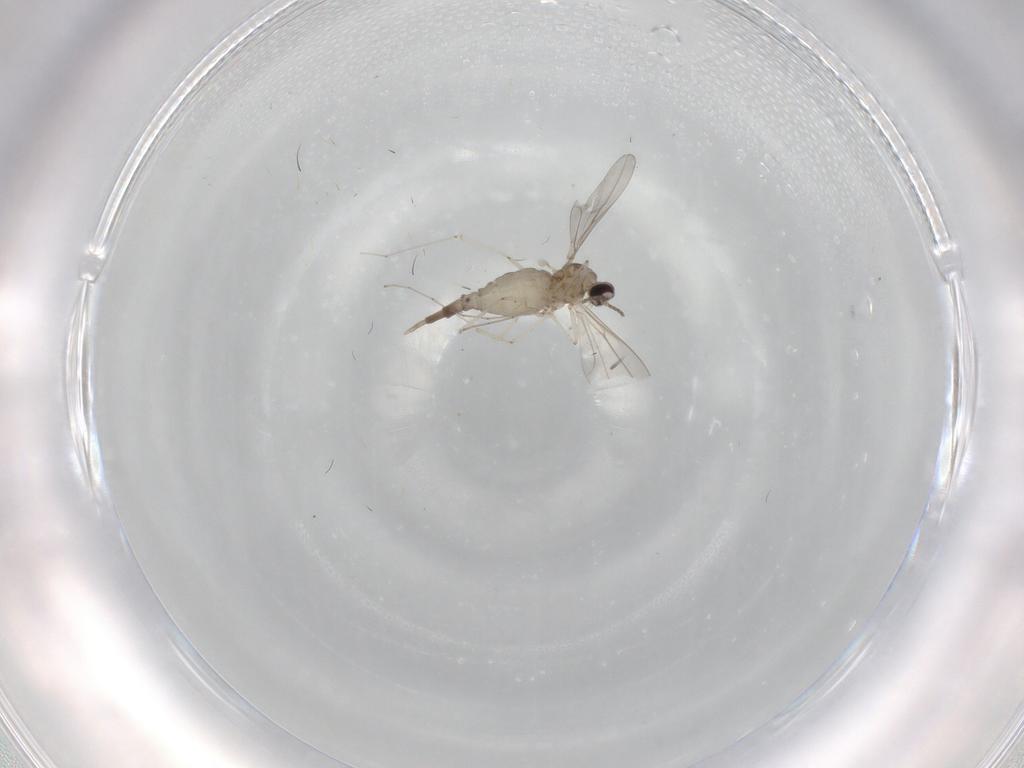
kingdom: Animalia
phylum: Arthropoda
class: Insecta
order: Diptera
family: Cecidomyiidae
